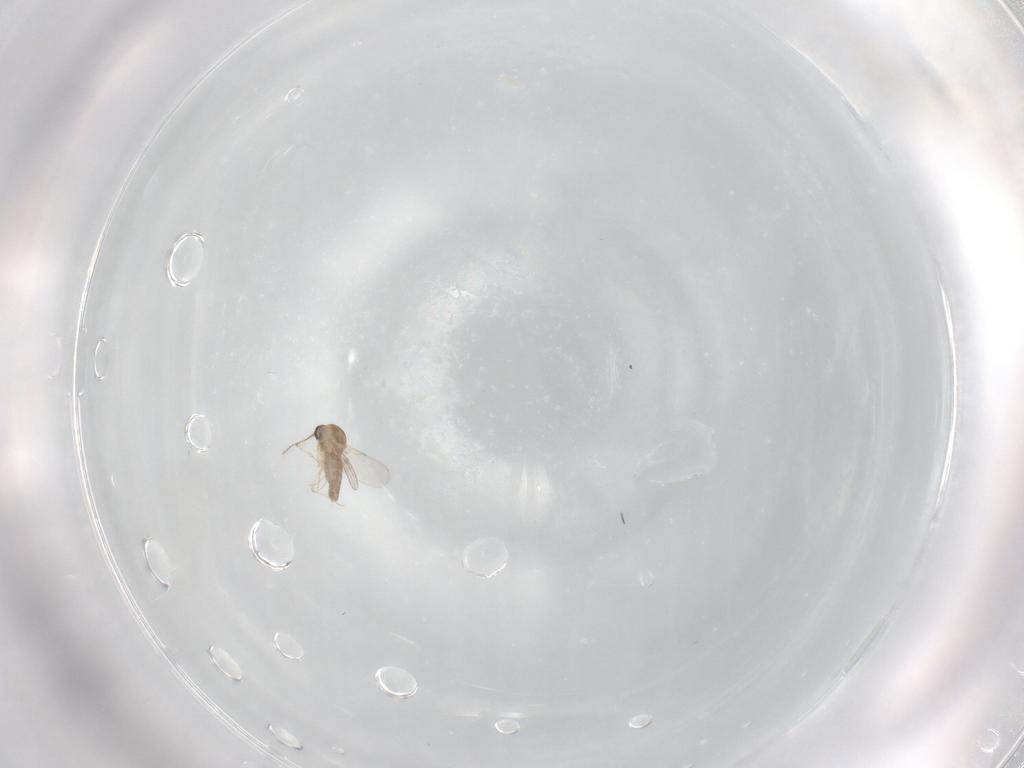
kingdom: Animalia
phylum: Arthropoda
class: Insecta
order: Diptera
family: Ceratopogonidae
